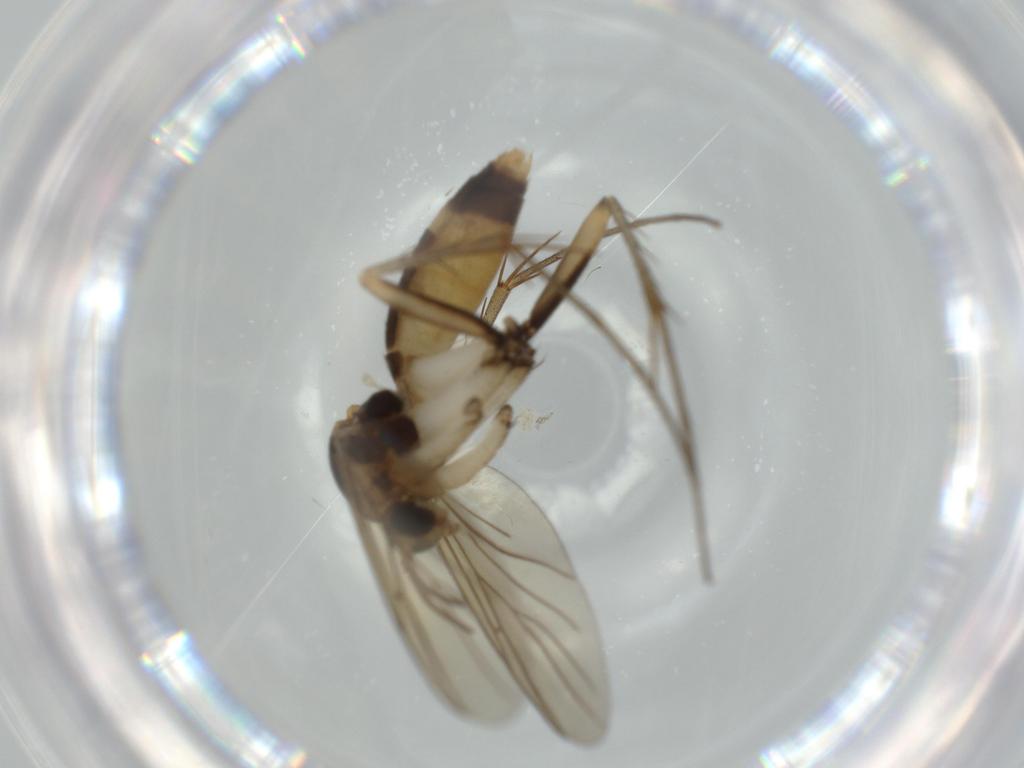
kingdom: Animalia
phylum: Arthropoda
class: Insecta
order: Diptera
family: Mycetophilidae
